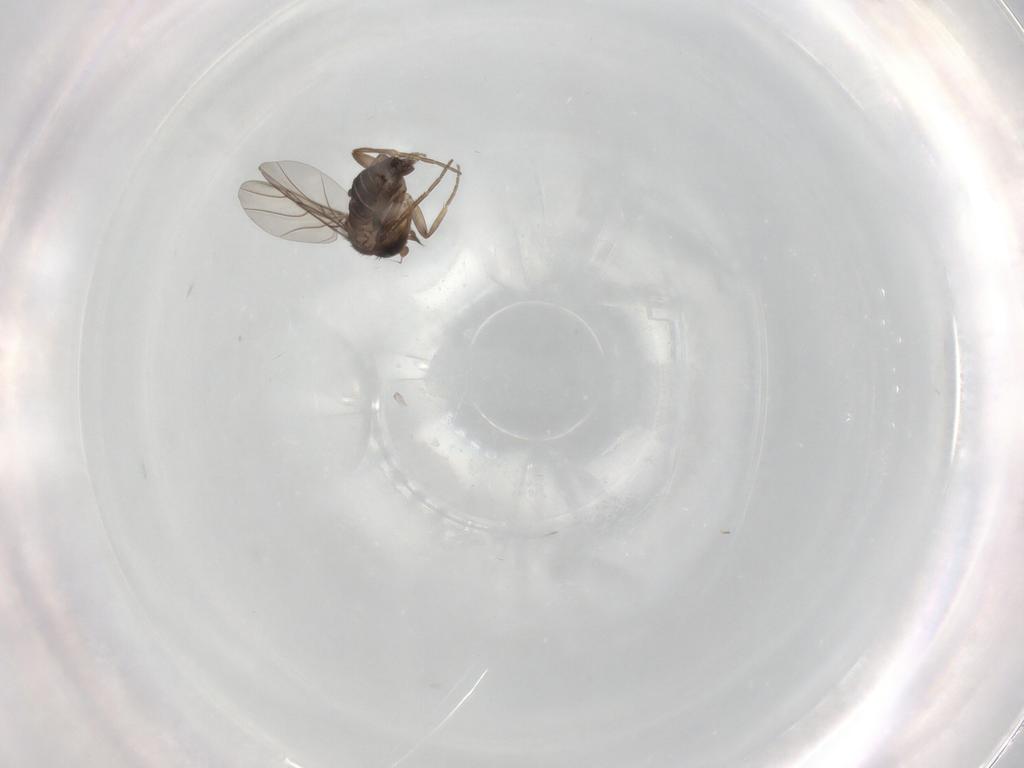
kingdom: Animalia
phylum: Arthropoda
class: Insecta
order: Diptera
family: Phoridae
